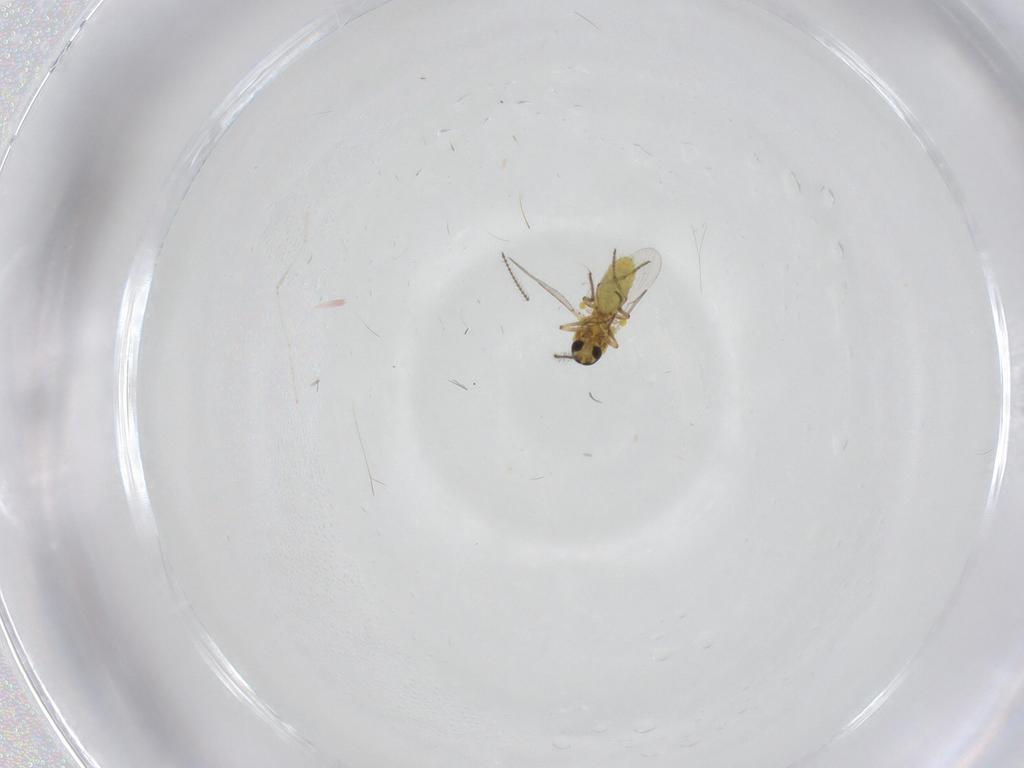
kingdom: Animalia
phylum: Arthropoda
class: Insecta
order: Diptera
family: Cecidomyiidae
